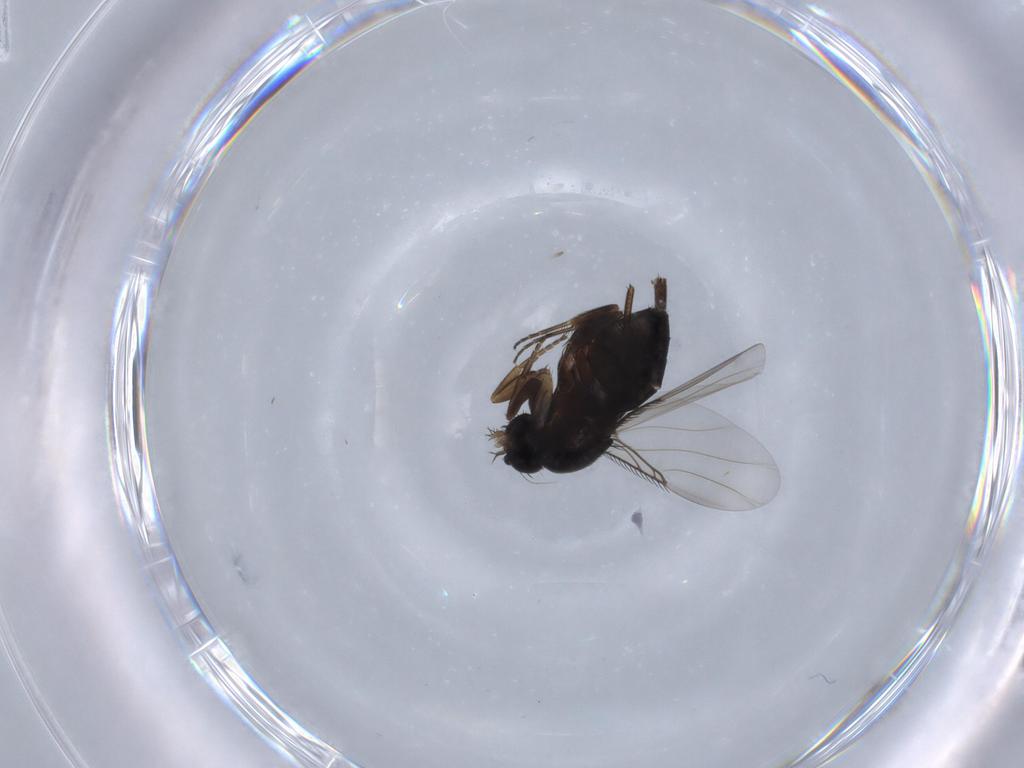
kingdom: Animalia
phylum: Arthropoda
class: Insecta
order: Diptera
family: Phoridae
